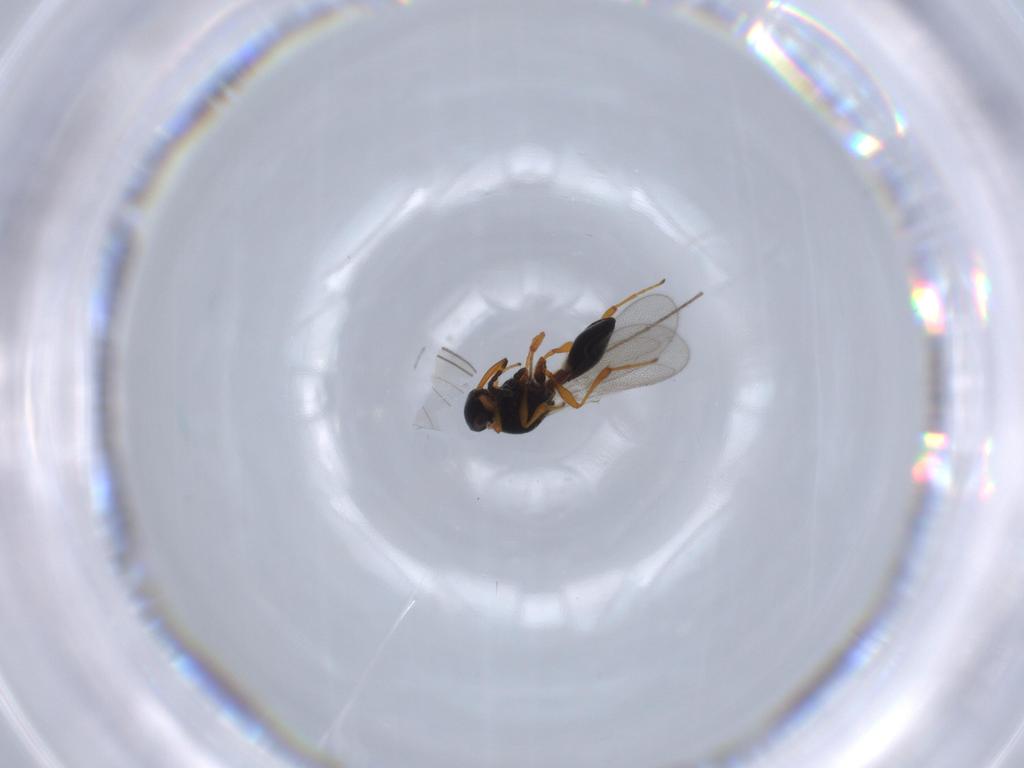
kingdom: Animalia
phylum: Arthropoda
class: Insecta
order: Hymenoptera
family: Platygastridae
